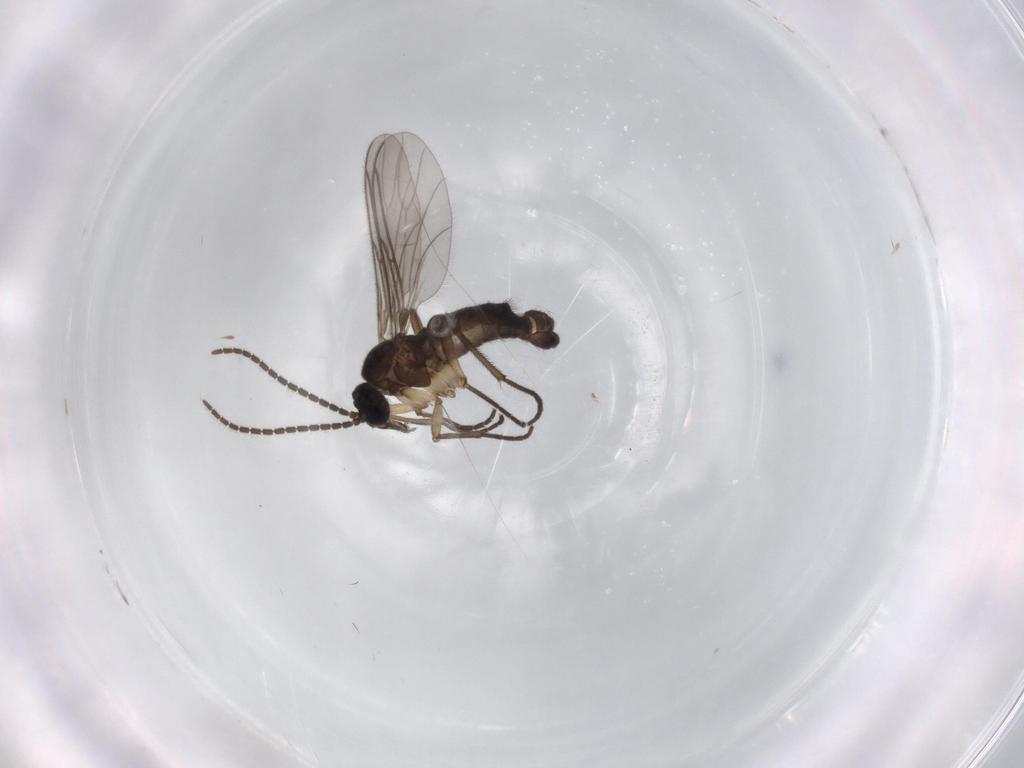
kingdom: Animalia
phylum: Arthropoda
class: Insecta
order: Diptera
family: Sciaridae
